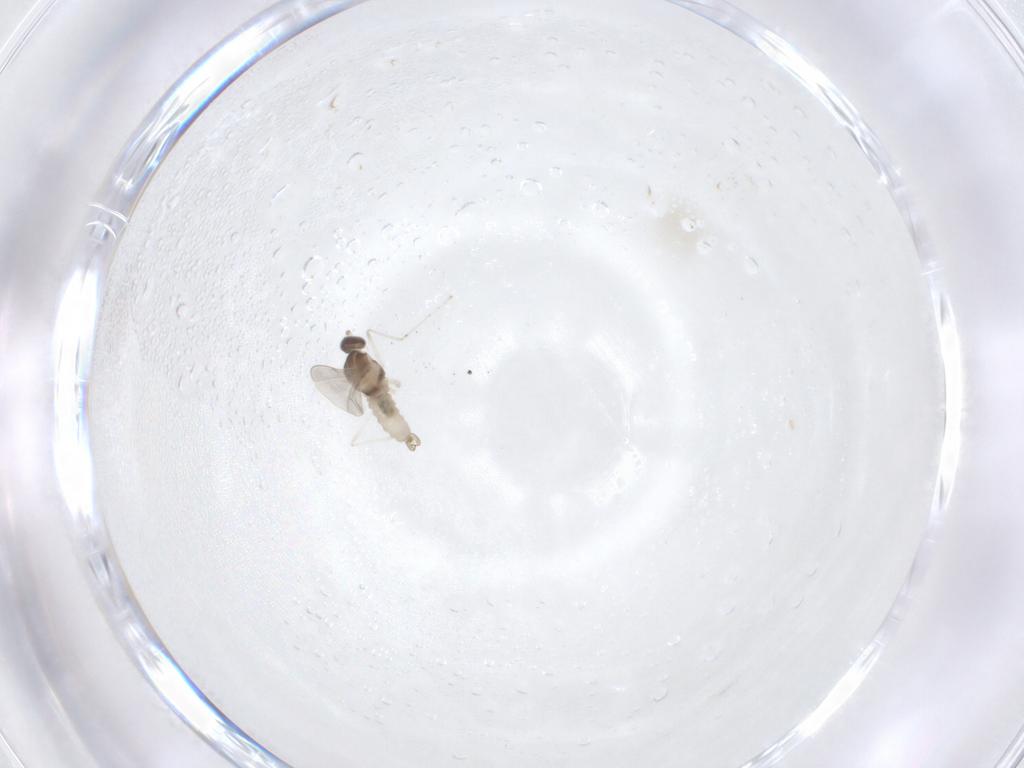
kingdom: Animalia
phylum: Arthropoda
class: Insecta
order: Diptera
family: Cecidomyiidae
